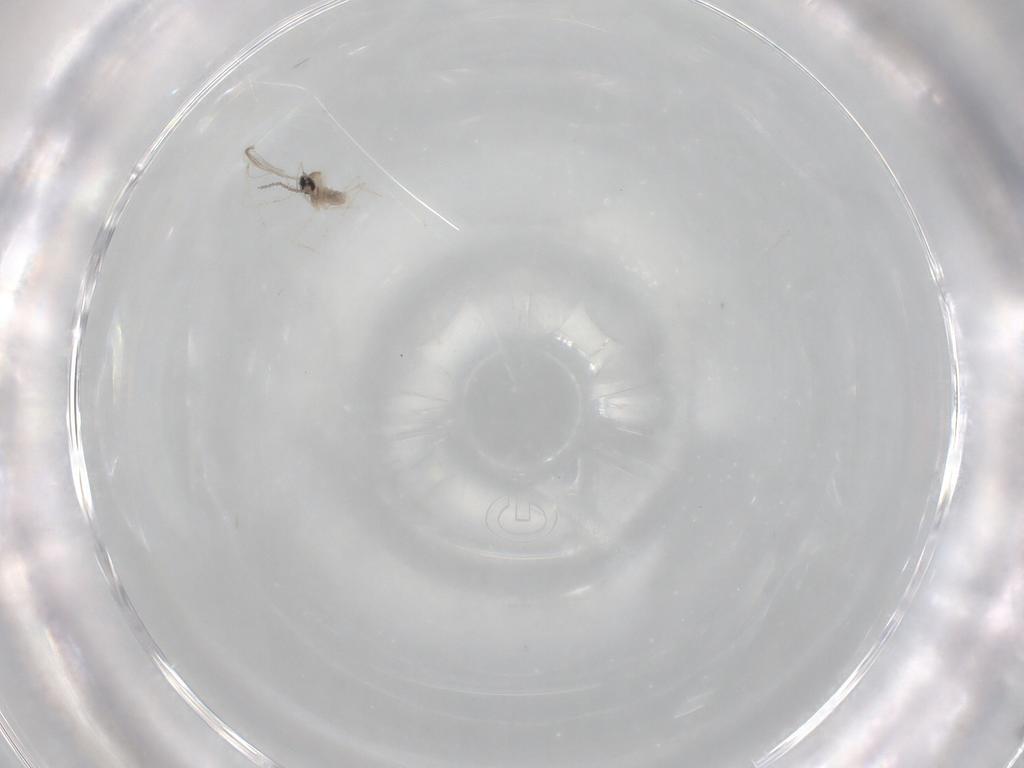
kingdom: Animalia
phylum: Arthropoda
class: Insecta
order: Diptera
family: Cecidomyiidae
